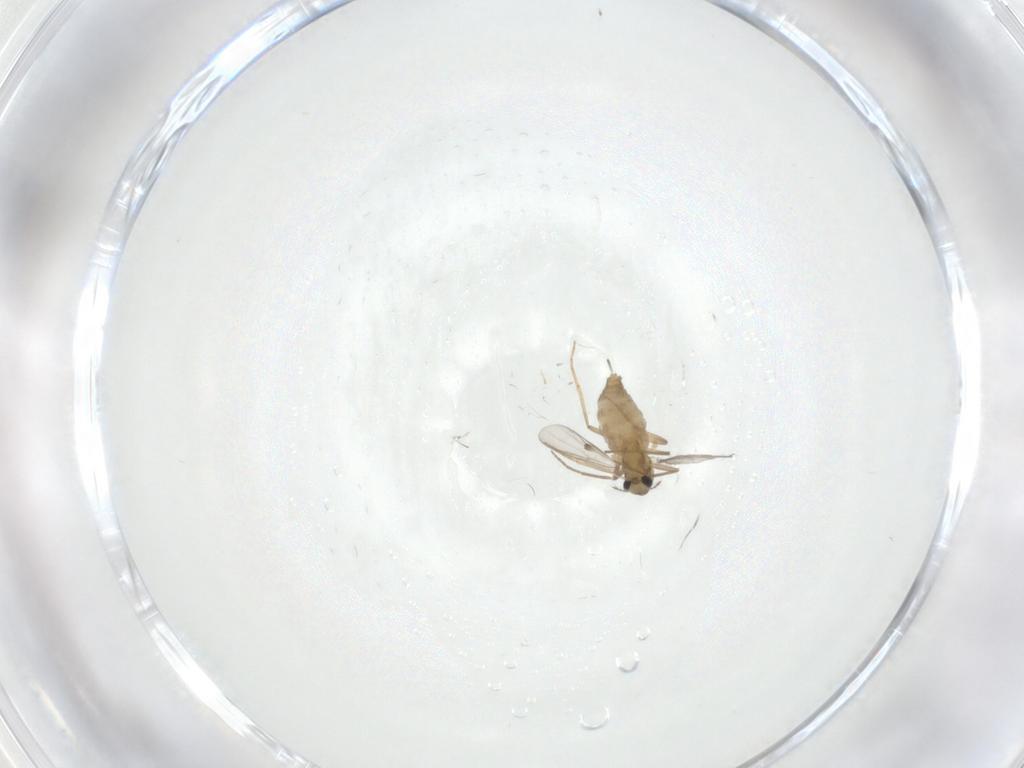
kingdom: Animalia
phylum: Arthropoda
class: Insecta
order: Diptera
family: Chironomidae
